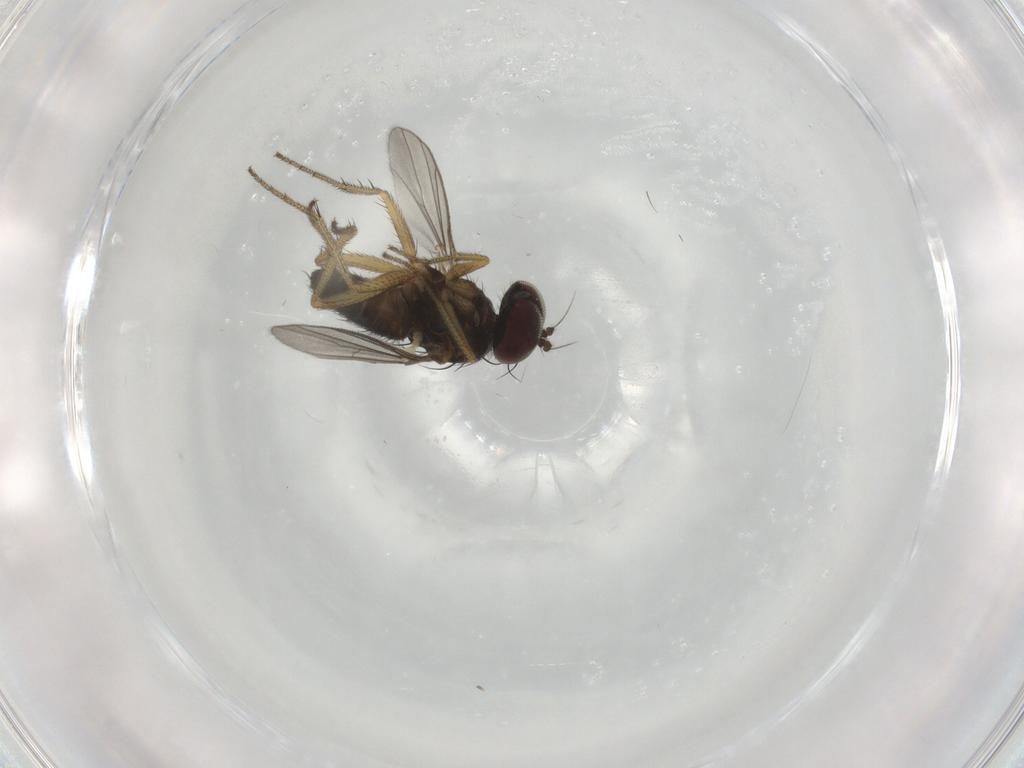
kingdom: Animalia
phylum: Arthropoda
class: Insecta
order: Diptera
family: Dolichopodidae
